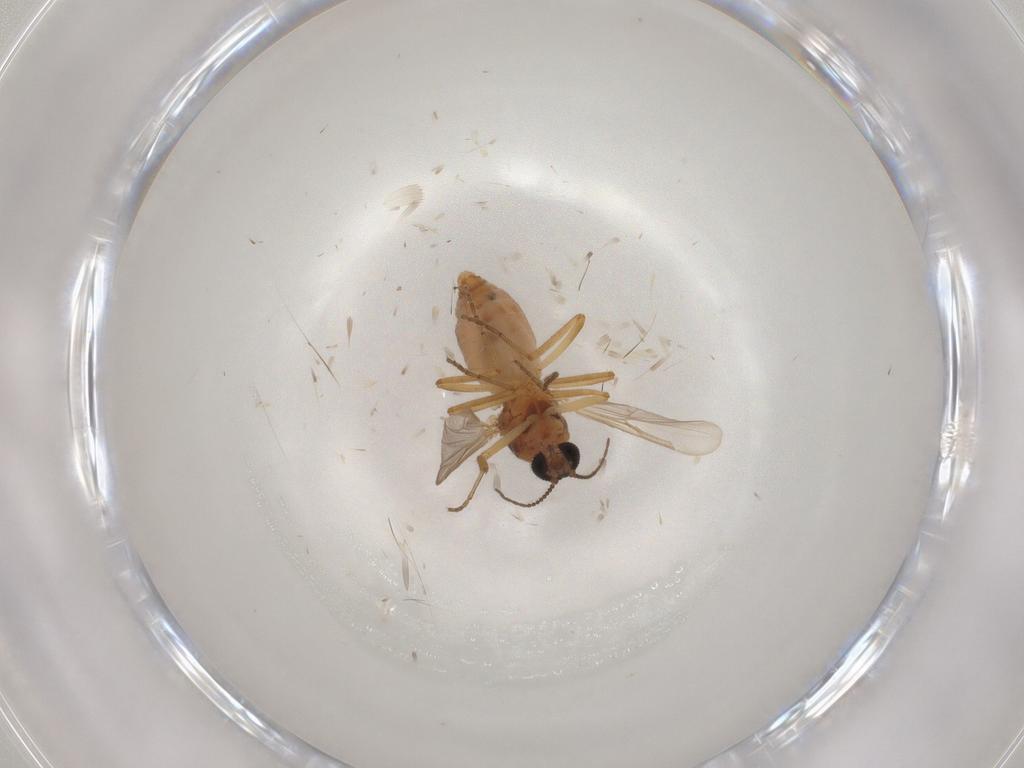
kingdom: Animalia
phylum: Arthropoda
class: Insecta
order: Diptera
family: Ceratopogonidae
